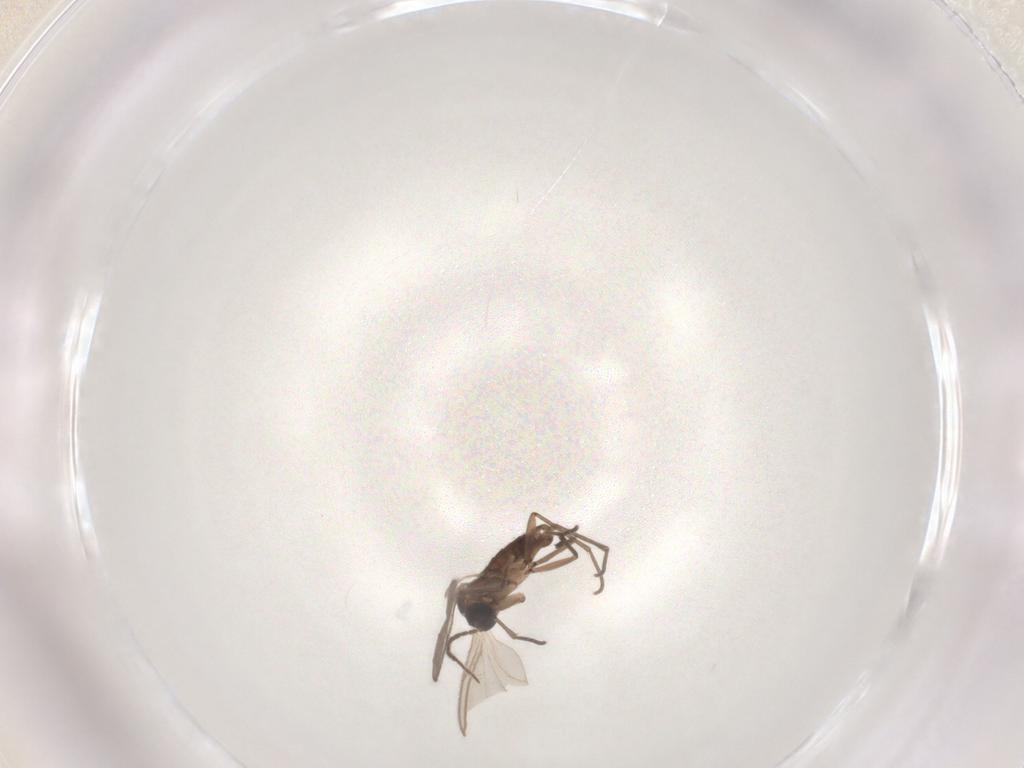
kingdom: Animalia
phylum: Arthropoda
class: Insecta
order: Diptera
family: Sciaridae
